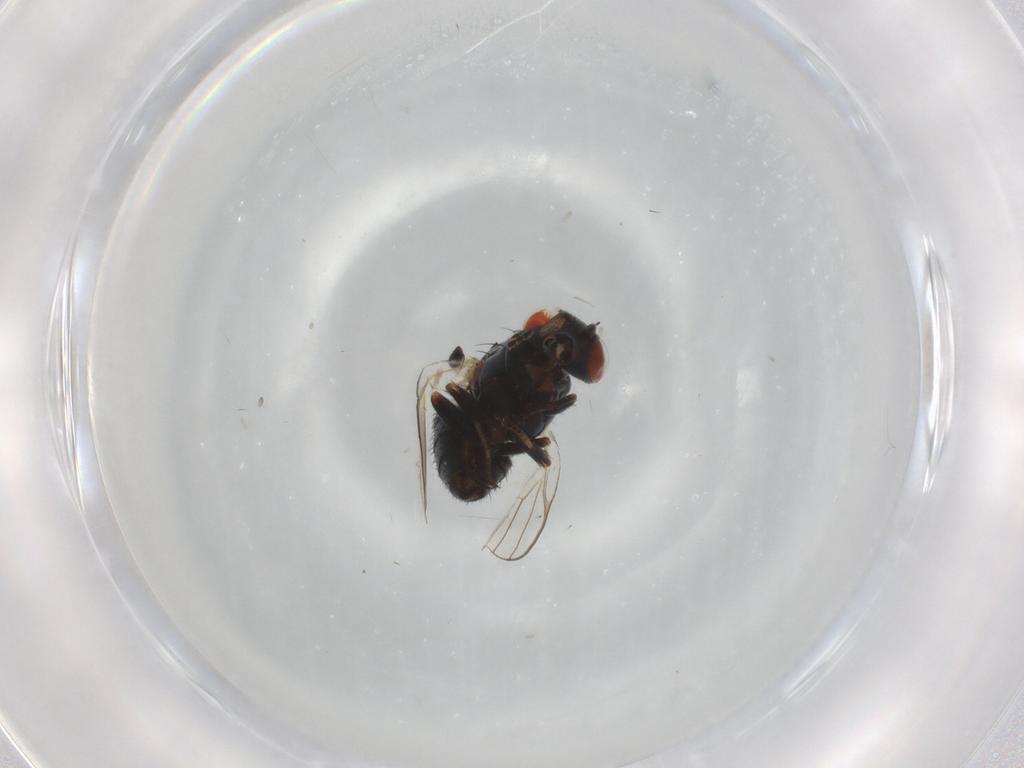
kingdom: Animalia
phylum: Arthropoda
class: Insecta
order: Diptera
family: Chamaemyiidae
